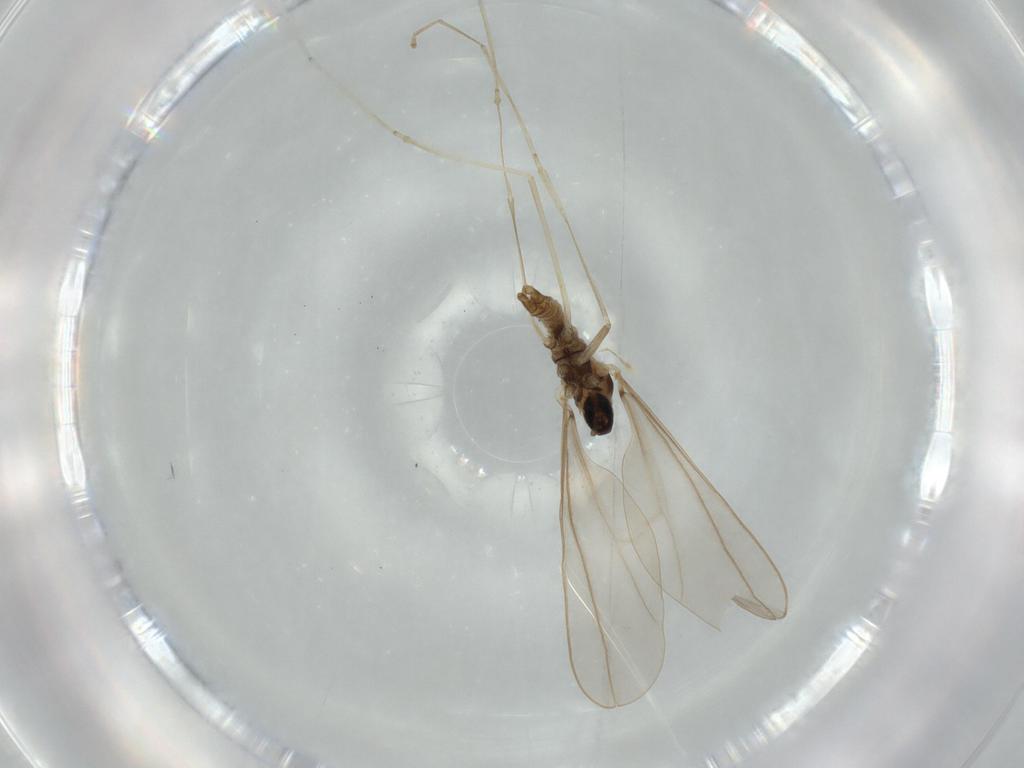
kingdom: Animalia
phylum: Arthropoda
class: Insecta
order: Diptera
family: Cecidomyiidae
